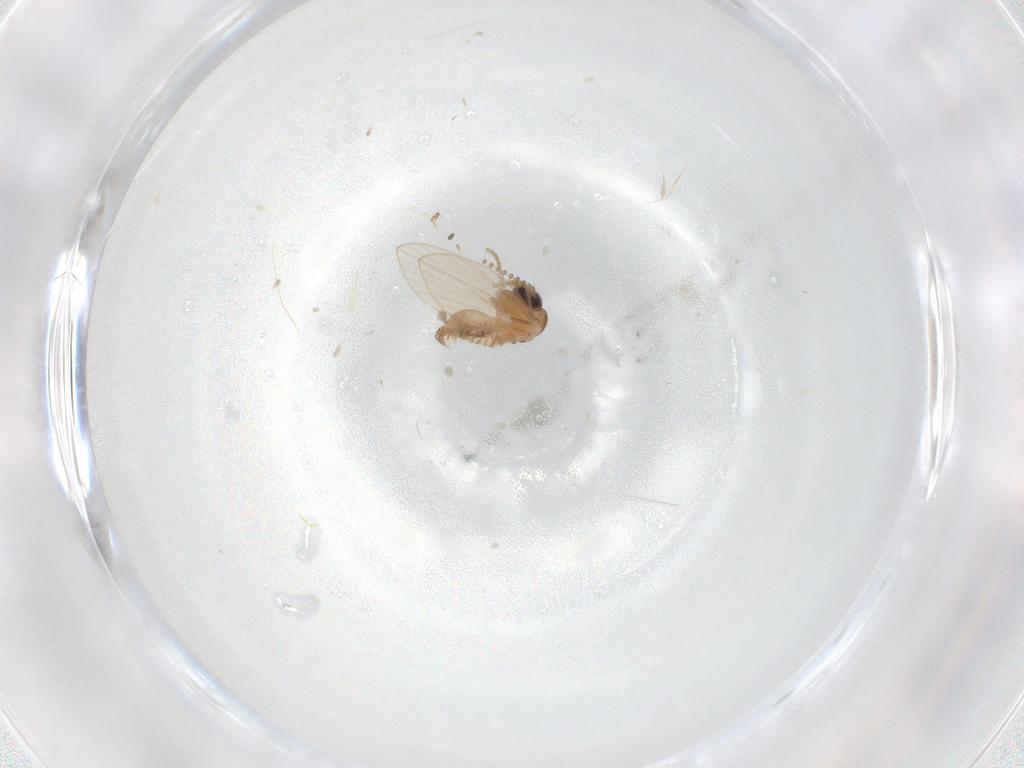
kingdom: Animalia
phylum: Arthropoda
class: Insecta
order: Diptera
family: Psychodidae
